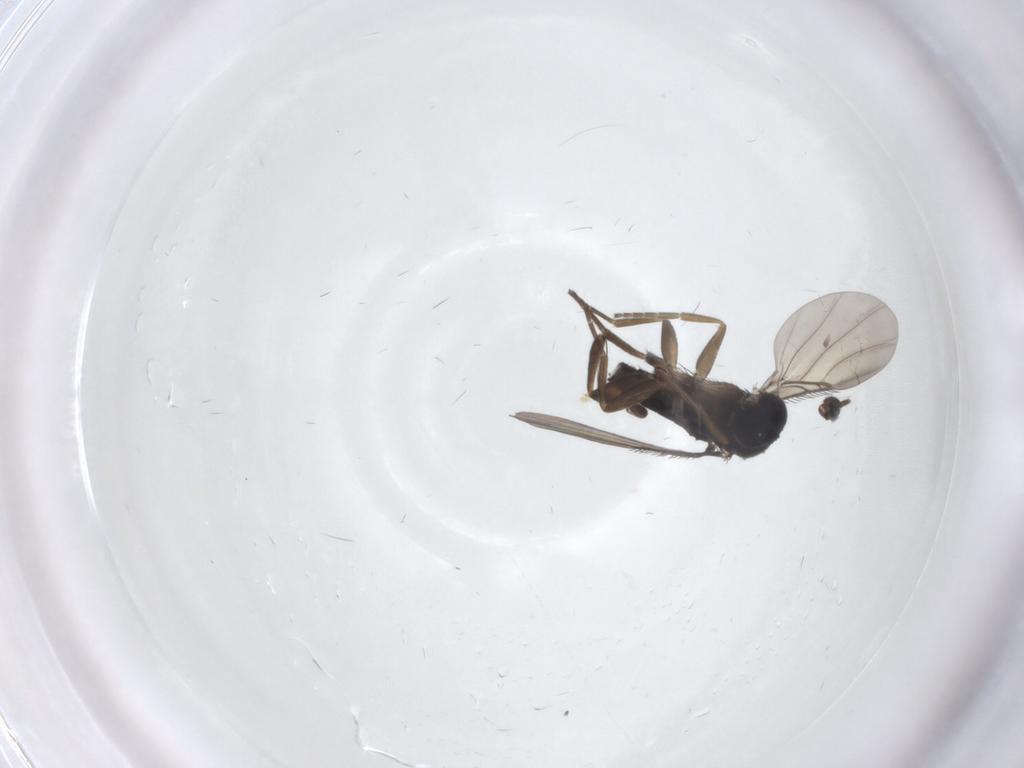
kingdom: Animalia
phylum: Arthropoda
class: Insecta
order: Diptera
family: Phoridae
